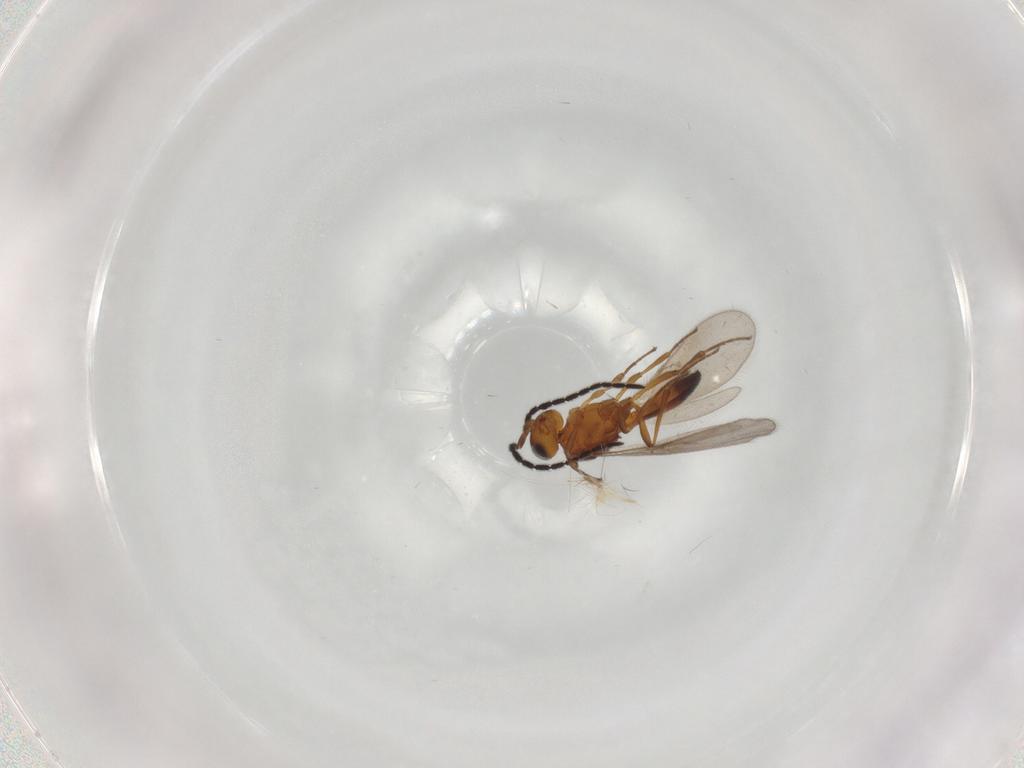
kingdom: Animalia
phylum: Arthropoda
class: Insecta
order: Hymenoptera
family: Scelionidae
